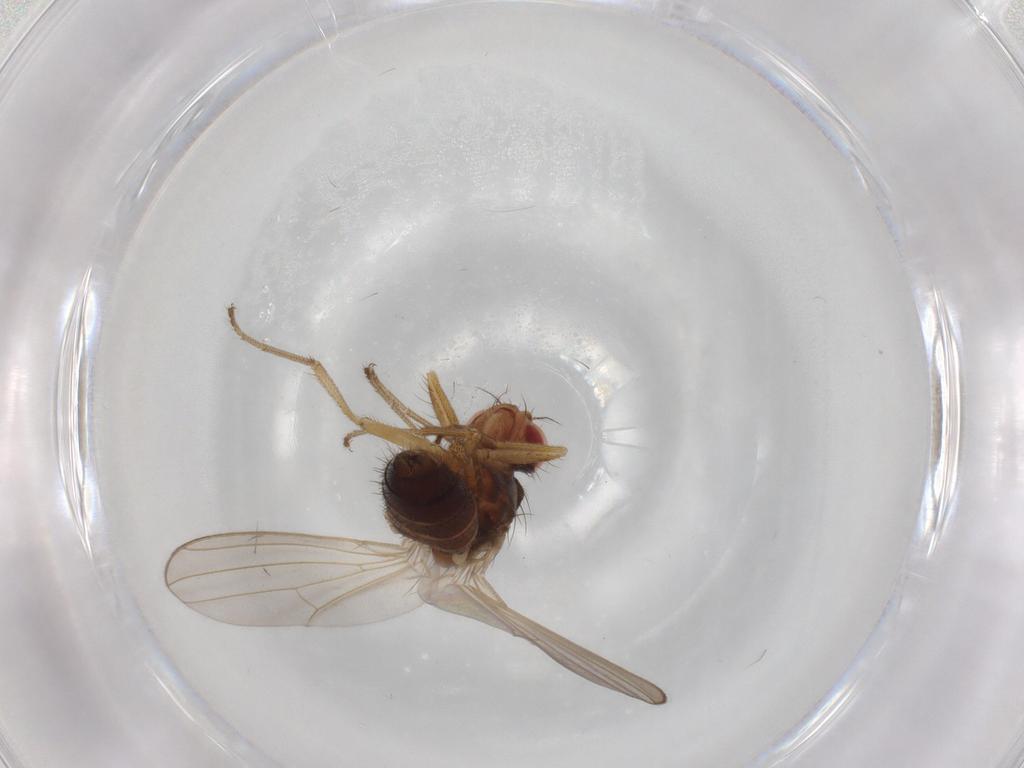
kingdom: Animalia
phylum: Arthropoda
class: Insecta
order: Diptera
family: Drosophilidae
